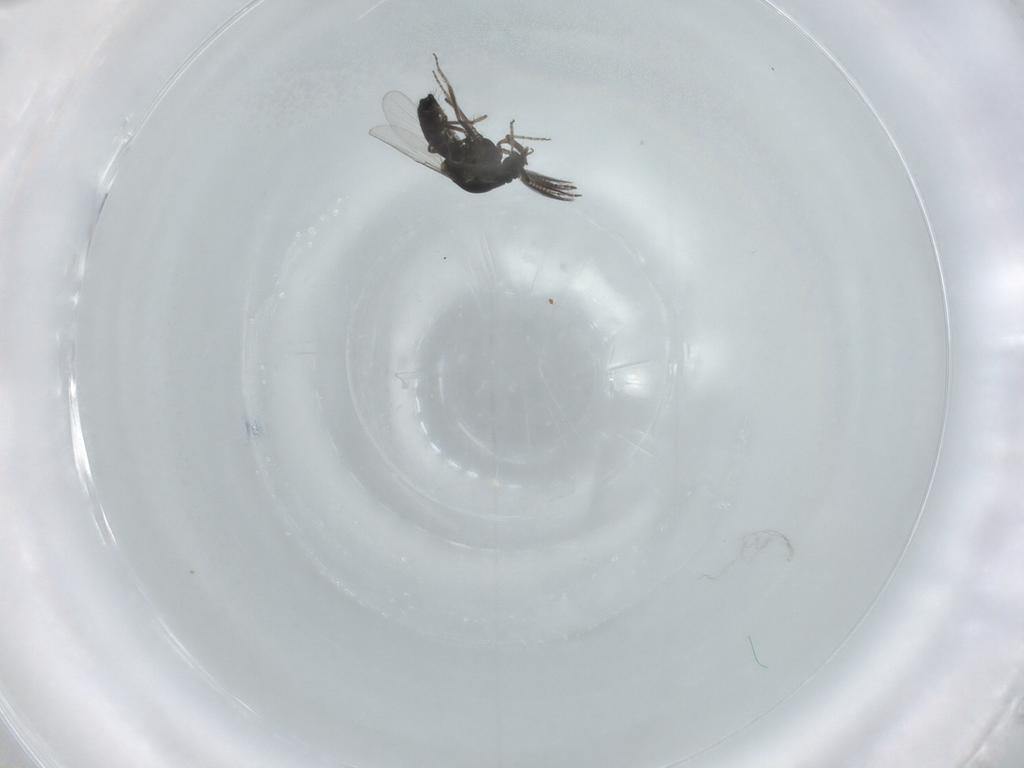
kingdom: Animalia
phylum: Arthropoda
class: Insecta
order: Diptera
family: Ceratopogonidae
